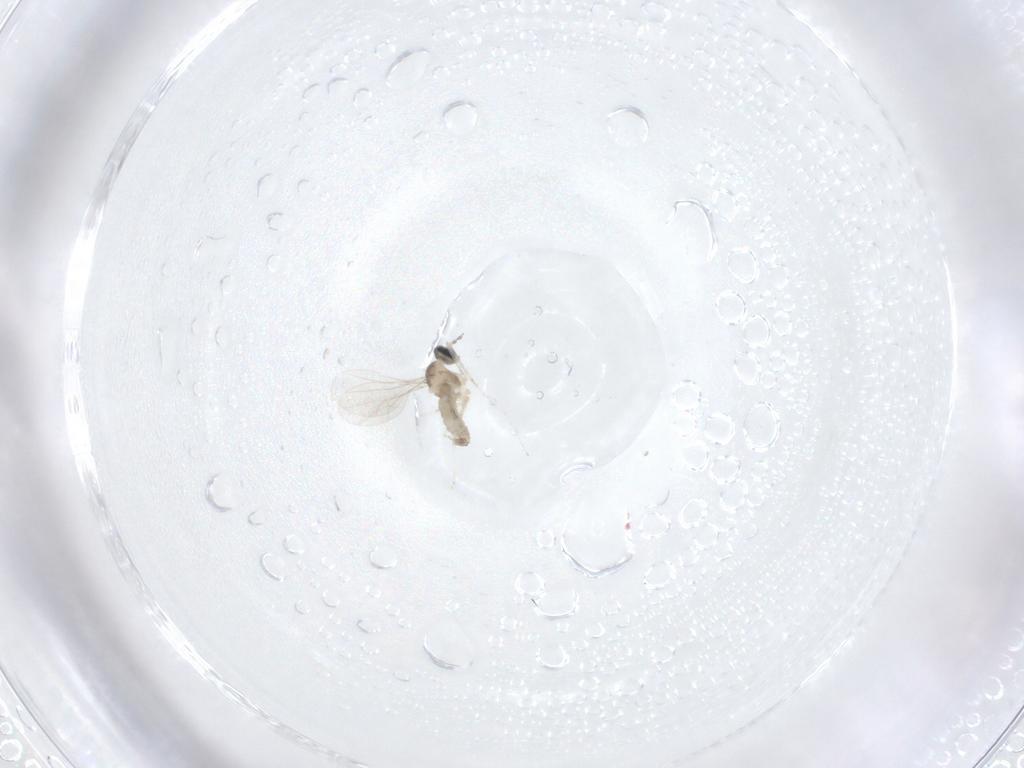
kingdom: Animalia
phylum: Arthropoda
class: Insecta
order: Diptera
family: Cecidomyiidae
